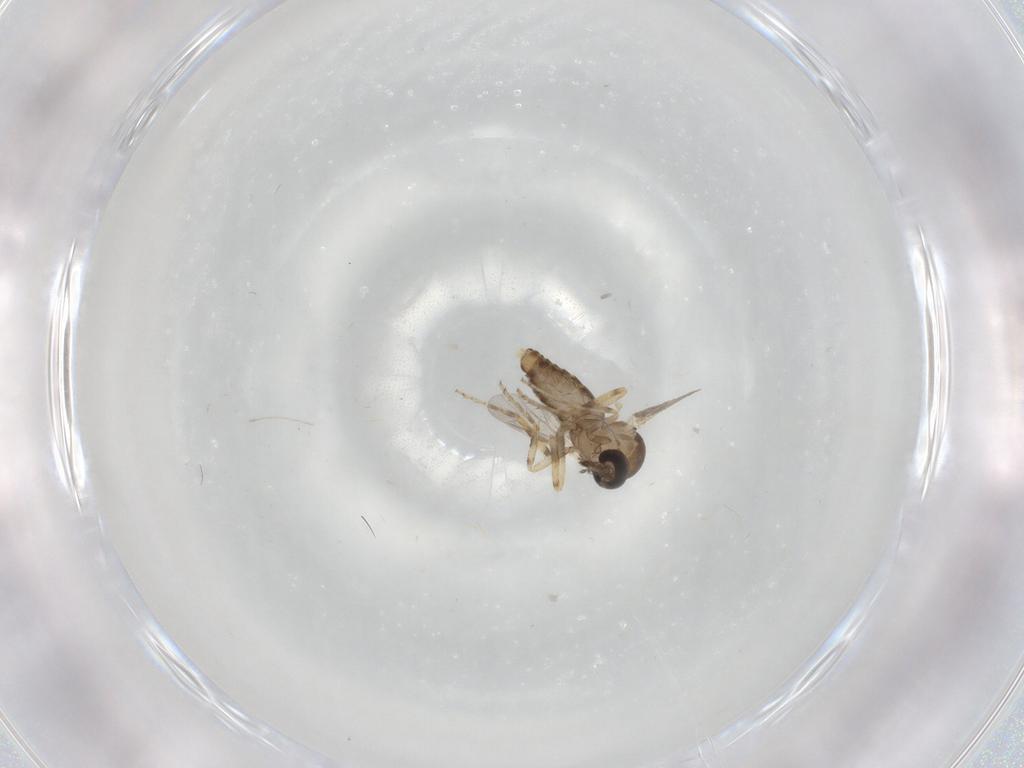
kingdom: Animalia
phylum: Arthropoda
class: Insecta
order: Diptera
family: Ceratopogonidae
